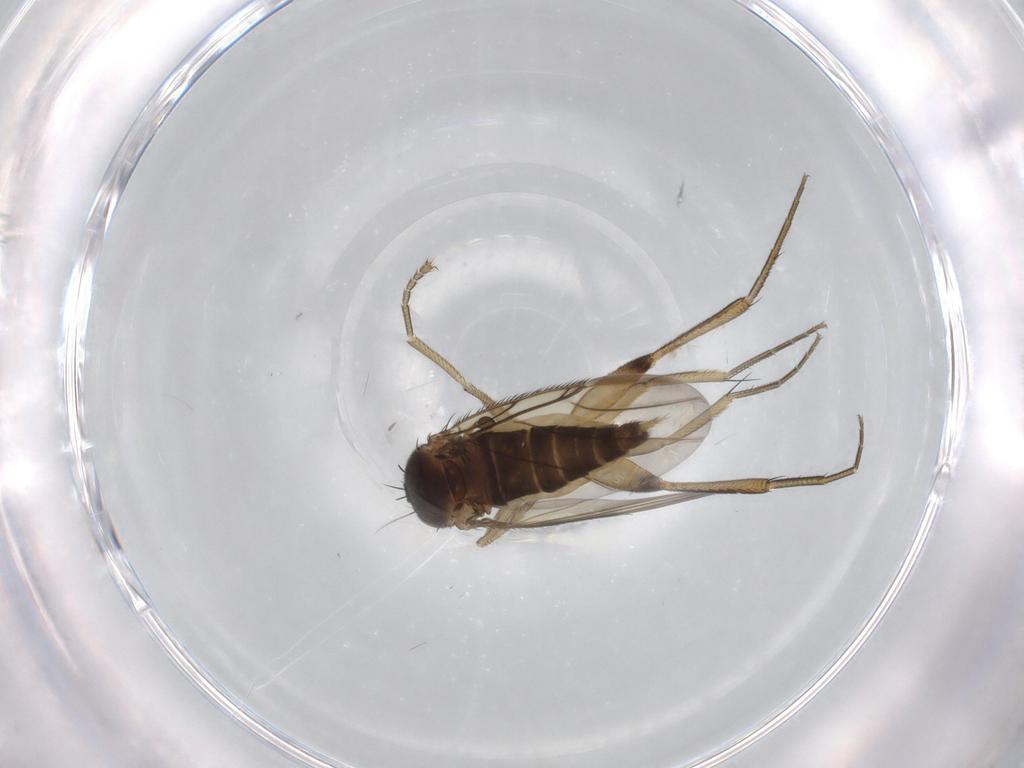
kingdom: Animalia
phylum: Arthropoda
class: Insecta
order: Diptera
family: Phoridae
